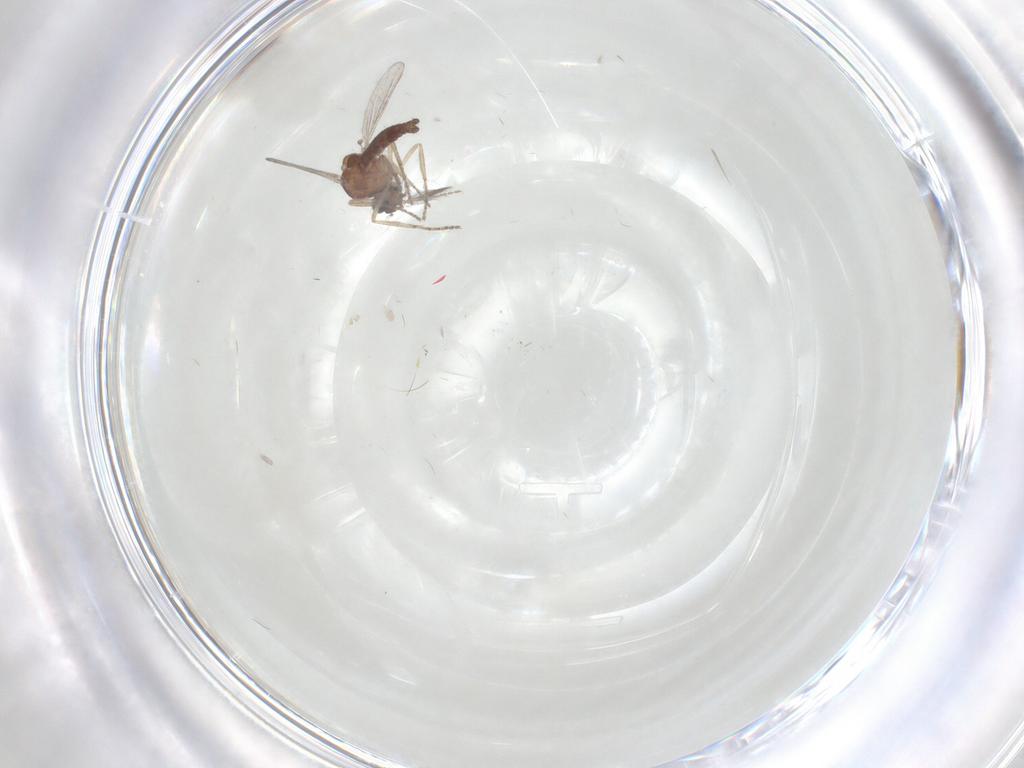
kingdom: Animalia
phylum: Arthropoda
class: Insecta
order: Diptera
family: Ceratopogonidae
